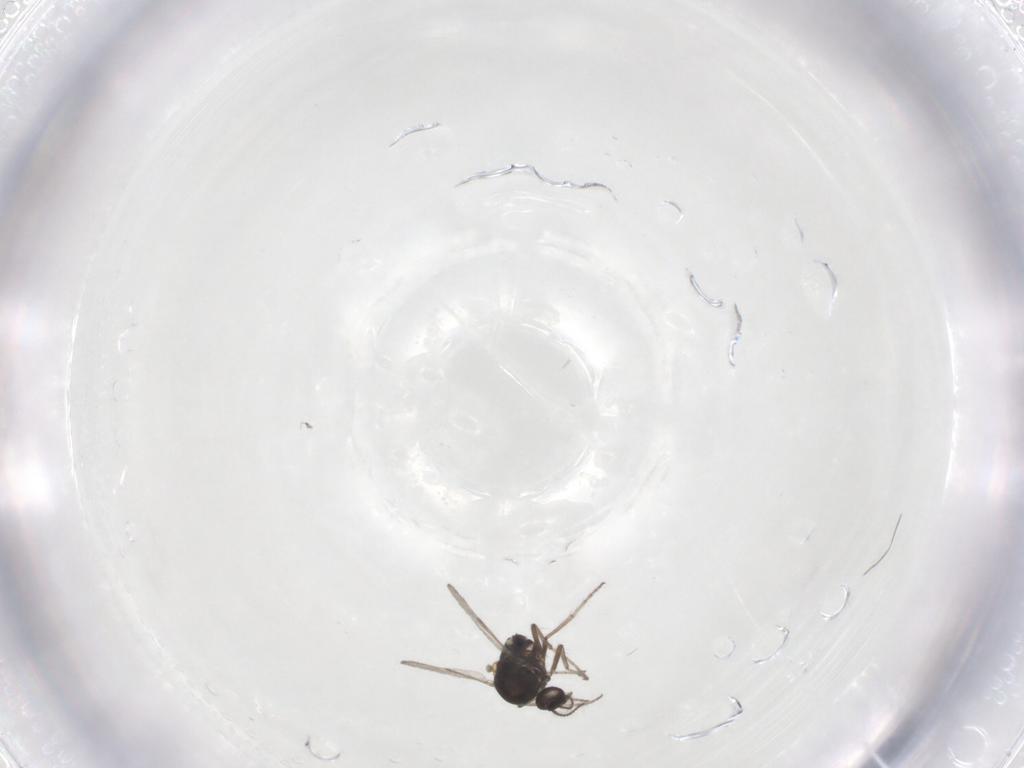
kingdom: Animalia
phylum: Arthropoda
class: Insecta
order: Diptera
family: Ceratopogonidae
